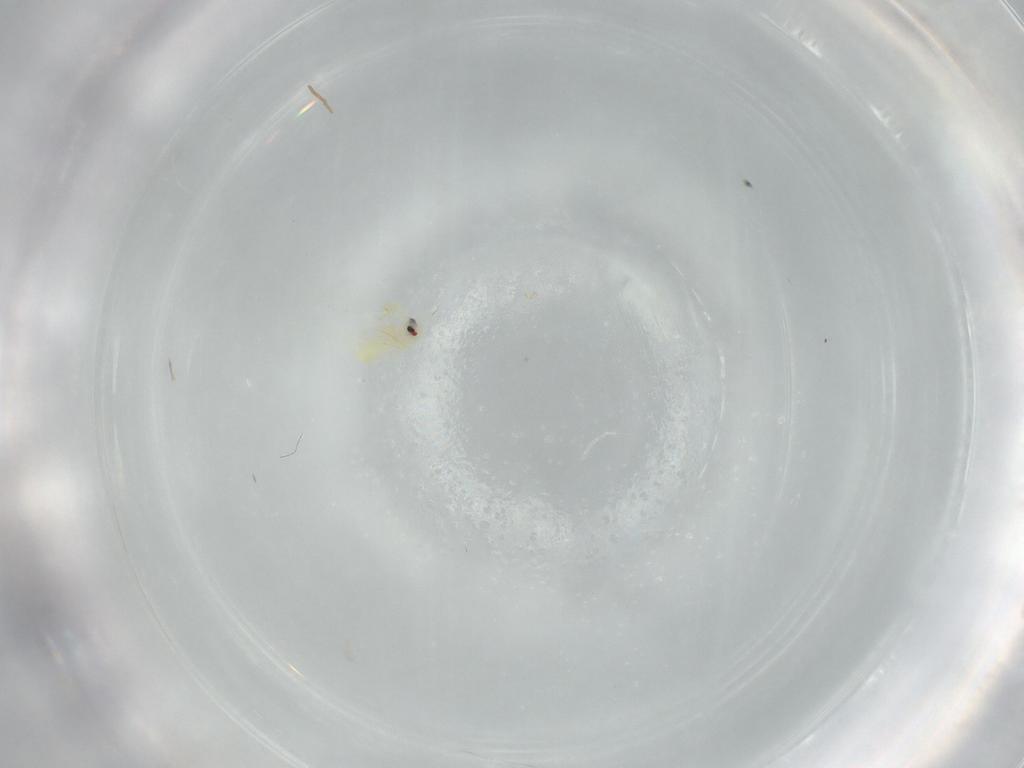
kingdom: Animalia
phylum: Arthropoda
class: Insecta
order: Hemiptera
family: Aleyrodidae
